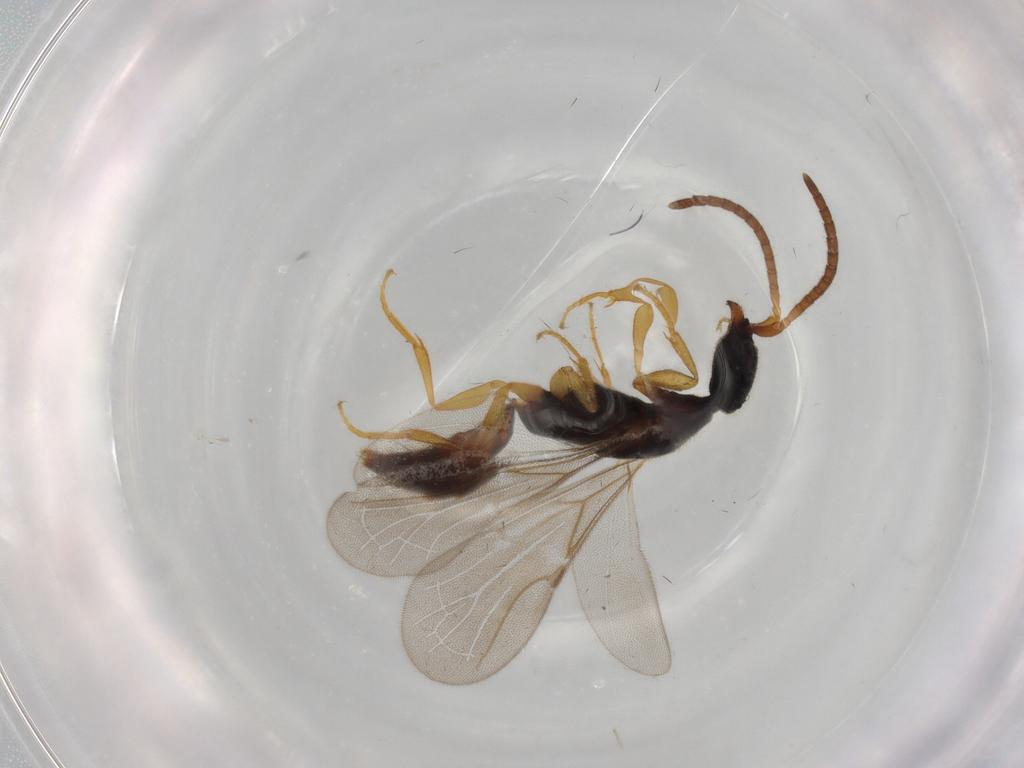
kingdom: Animalia
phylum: Arthropoda
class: Insecta
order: Hymenoptera
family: Bethylidae
